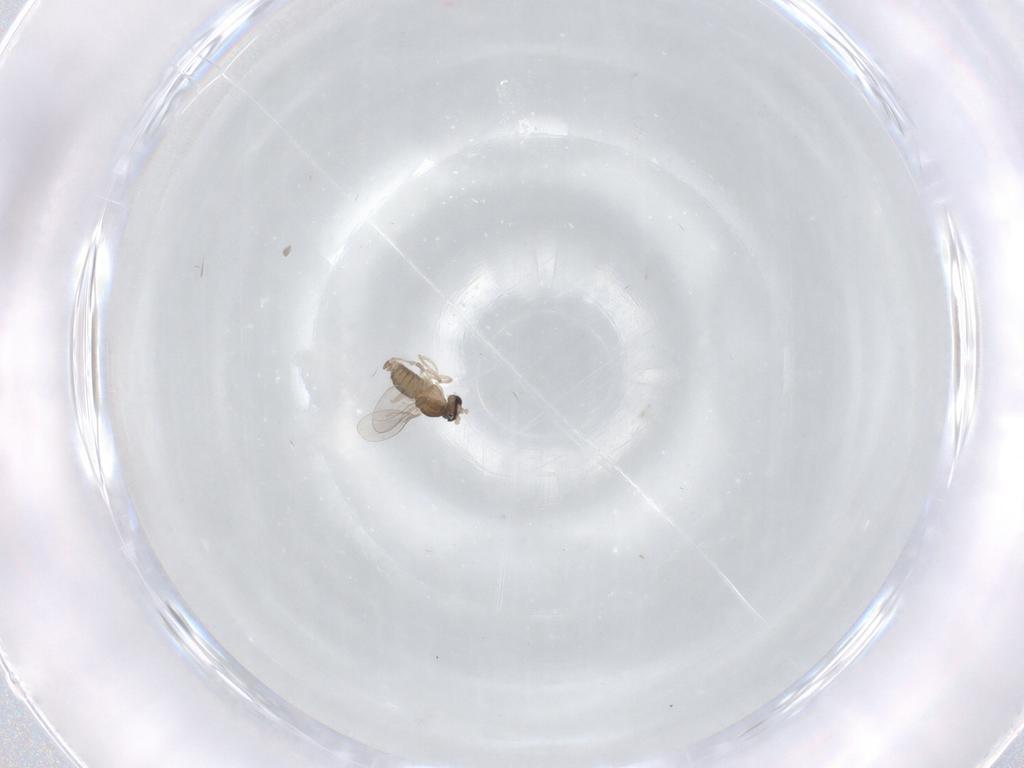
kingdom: Animalia
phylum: Arthropoda
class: Insecta
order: Diptera
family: Cecidomyiidae
